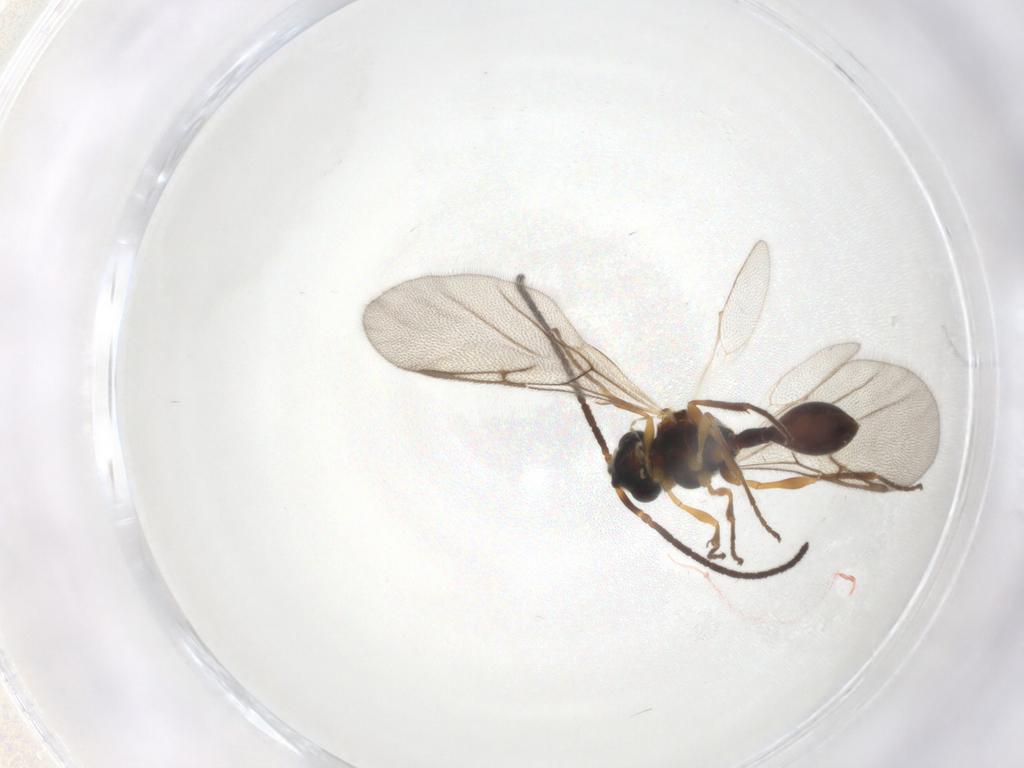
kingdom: Animalia
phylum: Arthropoda
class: Insecta
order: Hymenoptera
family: Diapriidae
